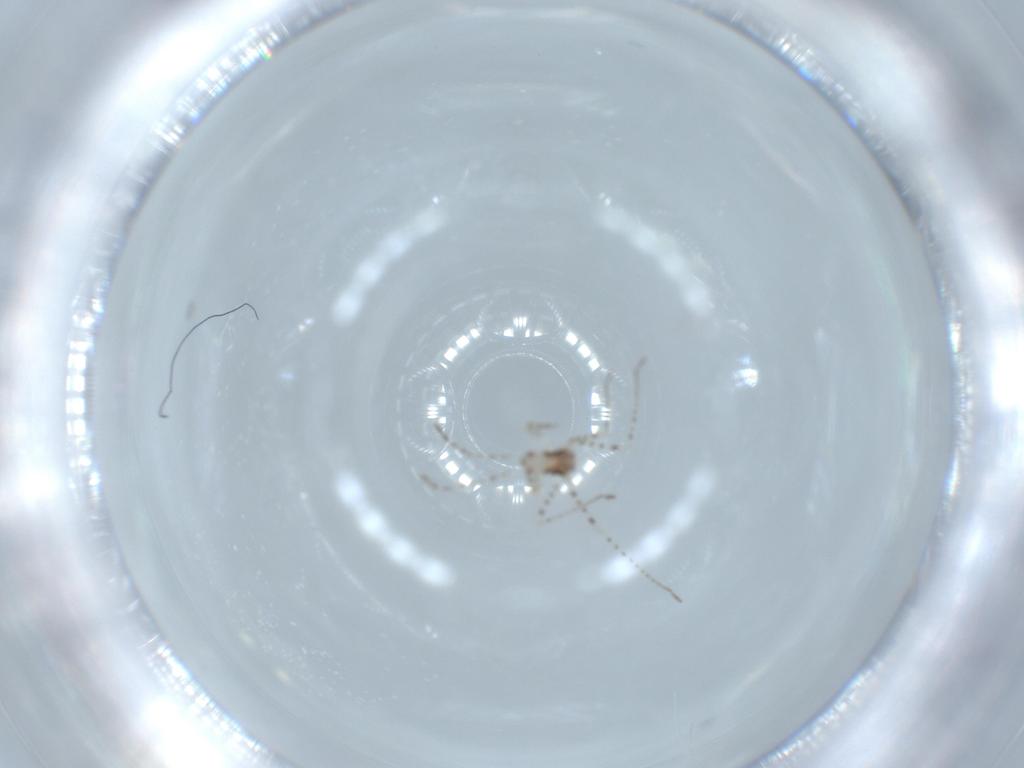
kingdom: Animalia
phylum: Arthropoda
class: Insecta
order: Hemiptera
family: Reduviidae
